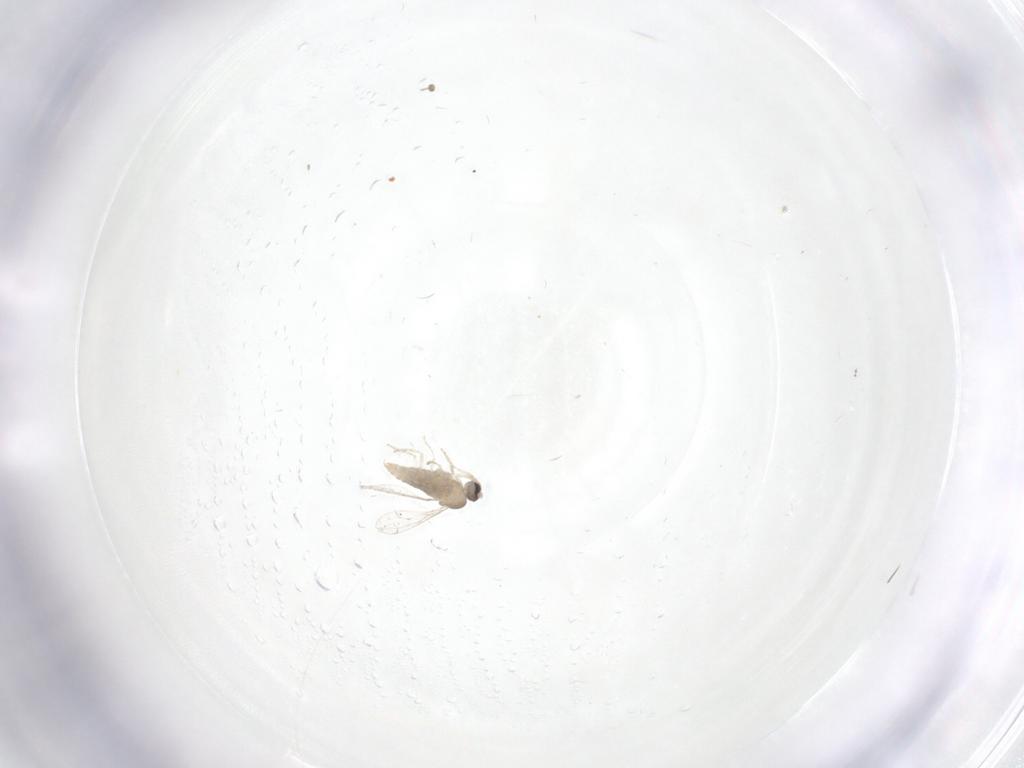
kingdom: Animalia
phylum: Arthropoda
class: Insecta
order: Diptera
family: Cecidomyiidae
